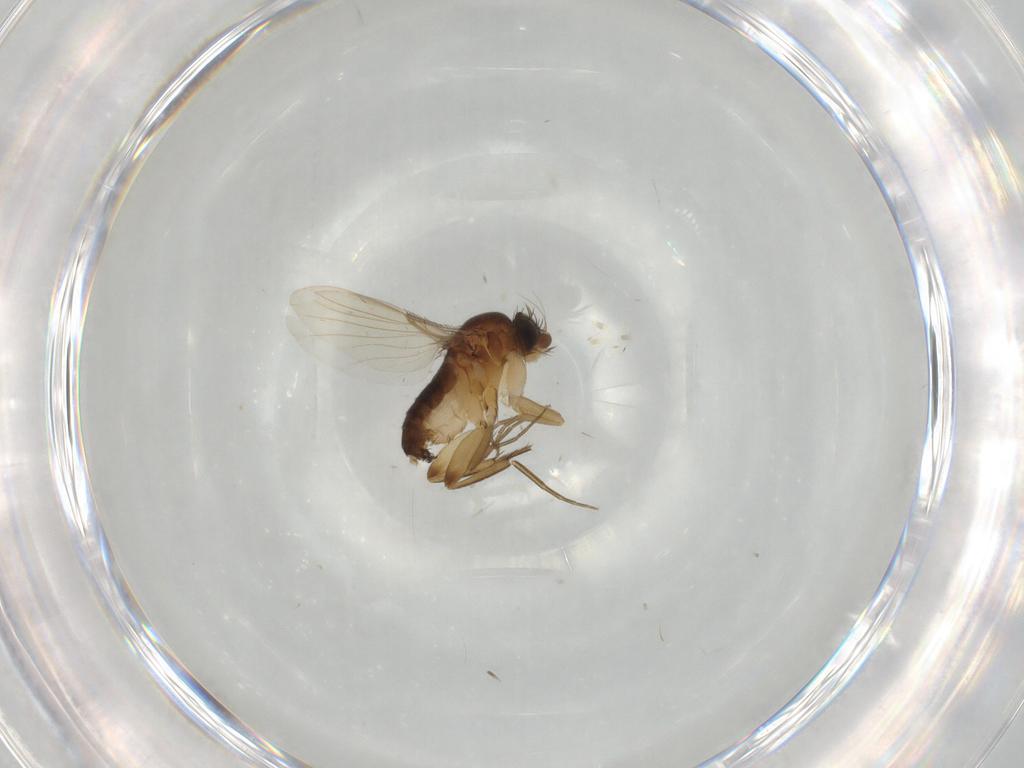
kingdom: Animalia
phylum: Arthropoda
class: Insecta
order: Diptera
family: Phoridae
